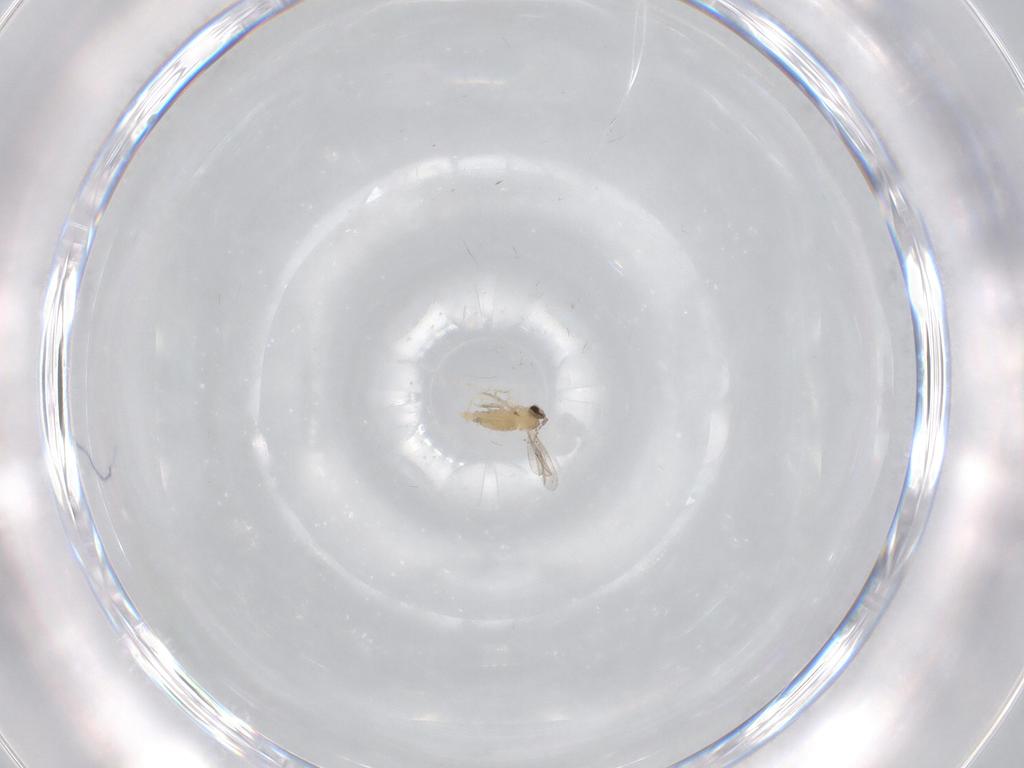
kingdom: Animalia
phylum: Arthropoda
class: Insecta
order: Diptera
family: Cecidomyiidae
